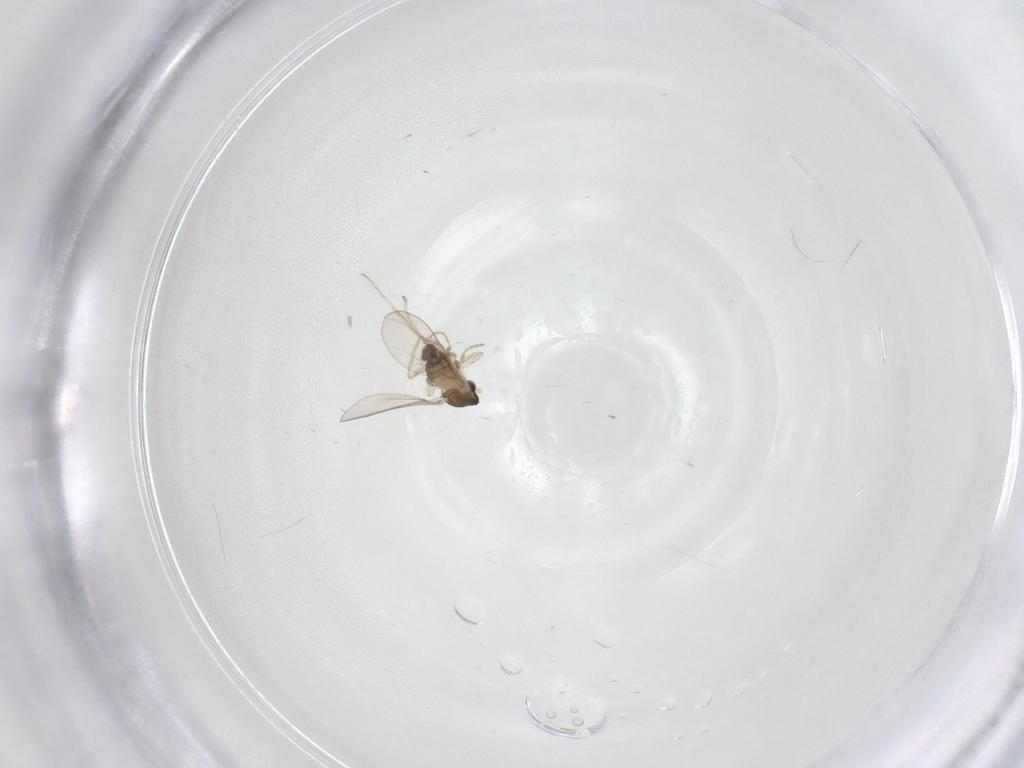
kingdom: Animalia
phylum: Arthropoda
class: Insecta
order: Diptera
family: Cecidomyiidae
